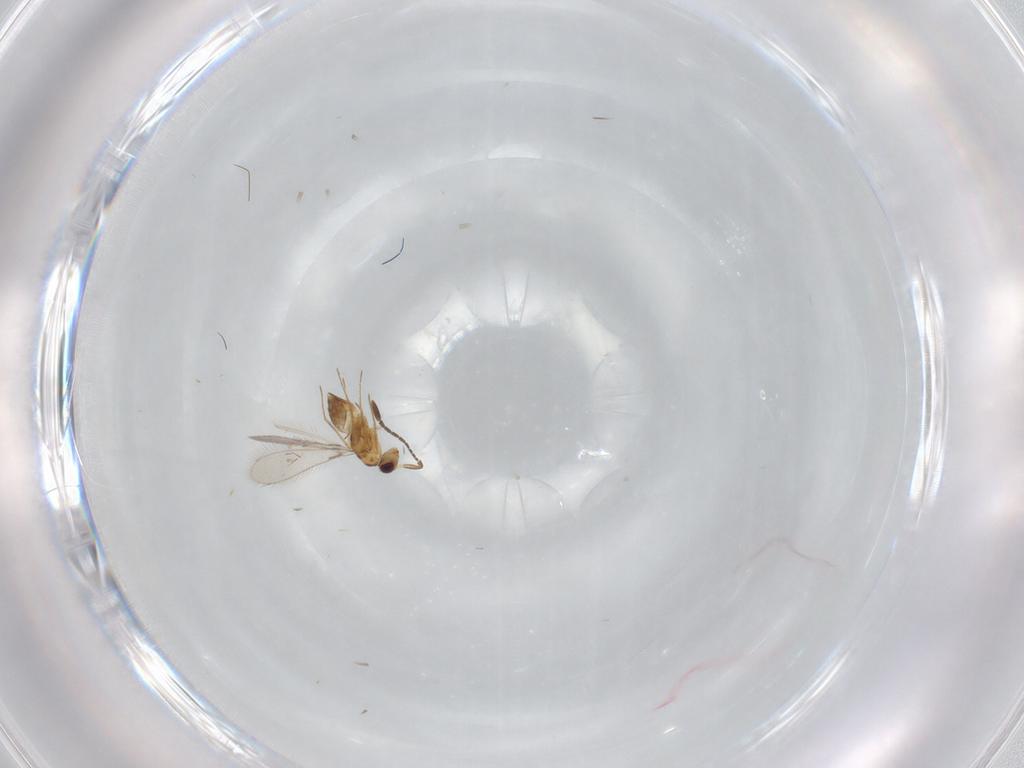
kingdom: Animalia
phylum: Arthropoda
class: Insecta
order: Hymenoptera
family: Mymaridae
